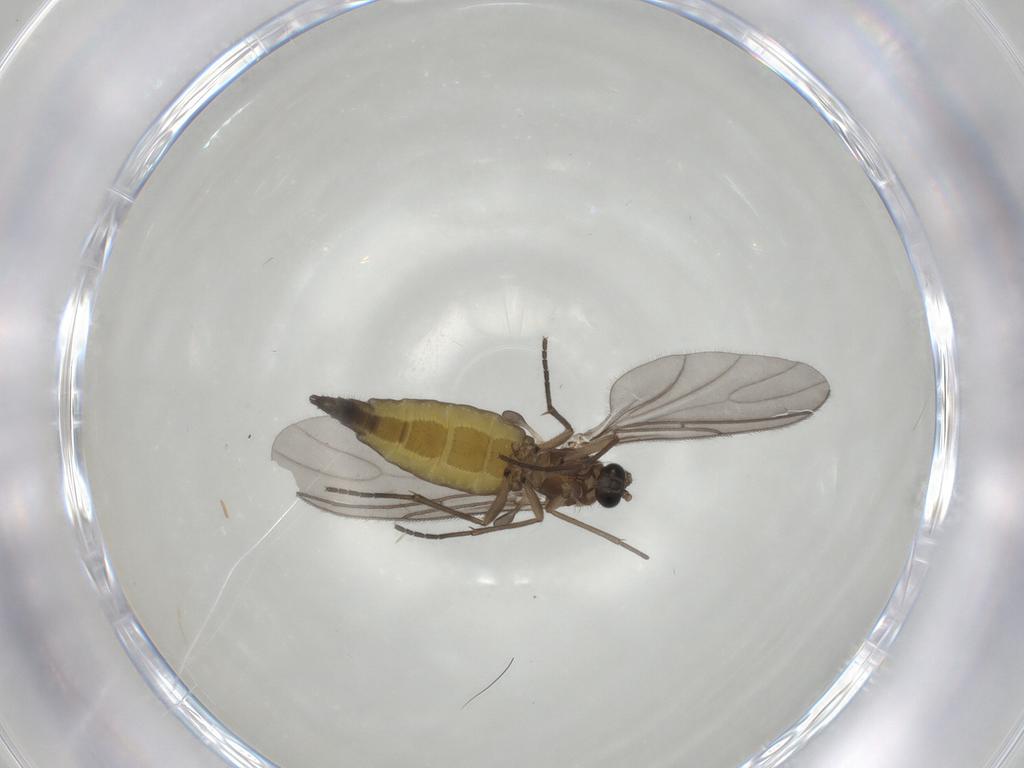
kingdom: Animalia
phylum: Arthropoda
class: Insecta
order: Diptera
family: Sciaridae
